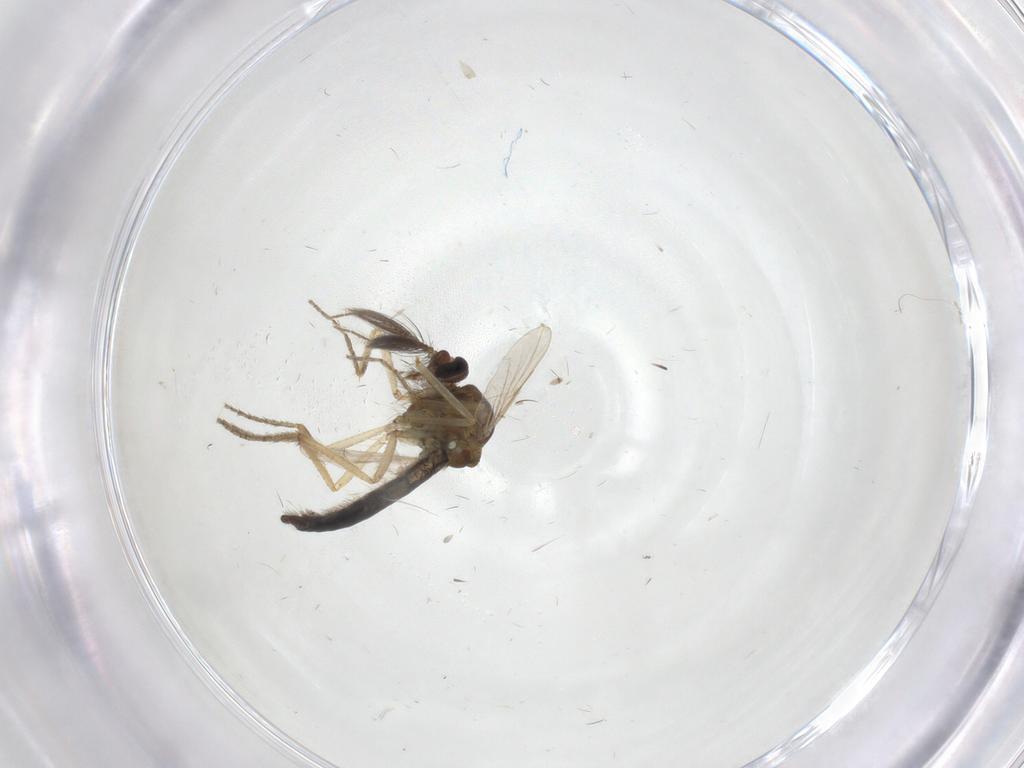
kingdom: Animalia
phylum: Arthropoda
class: Insecta
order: Diptera
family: Ceratopogonidae
